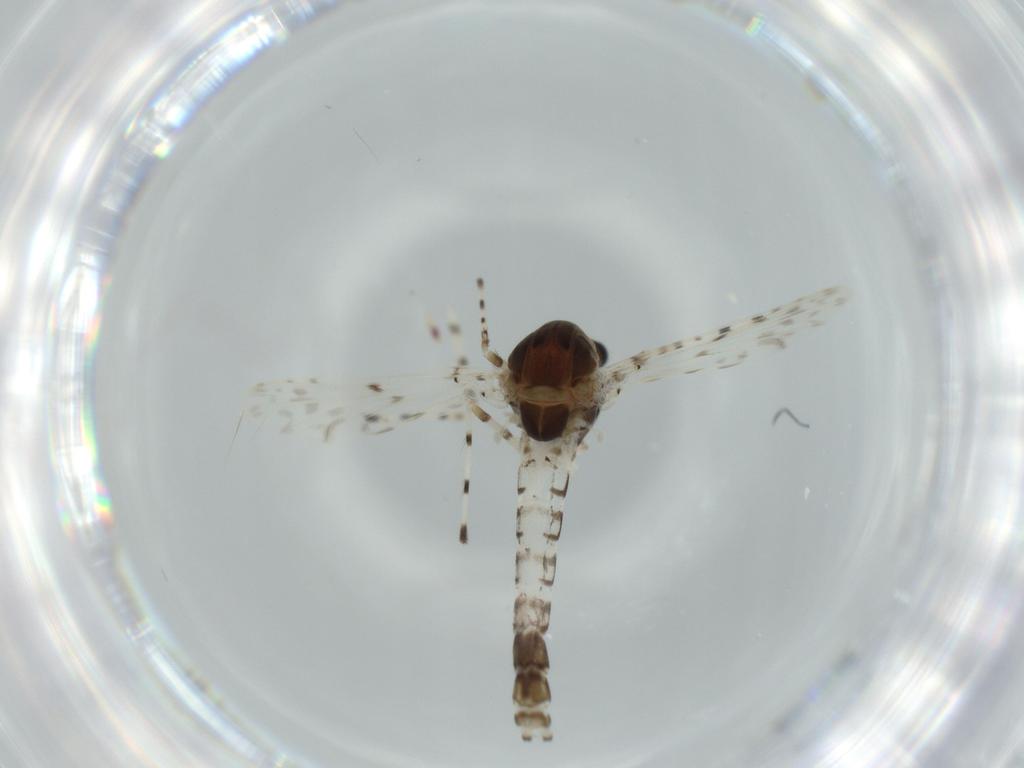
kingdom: Animalia
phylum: Arthropoda
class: Insecta
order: Diptera
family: Chironomidae
